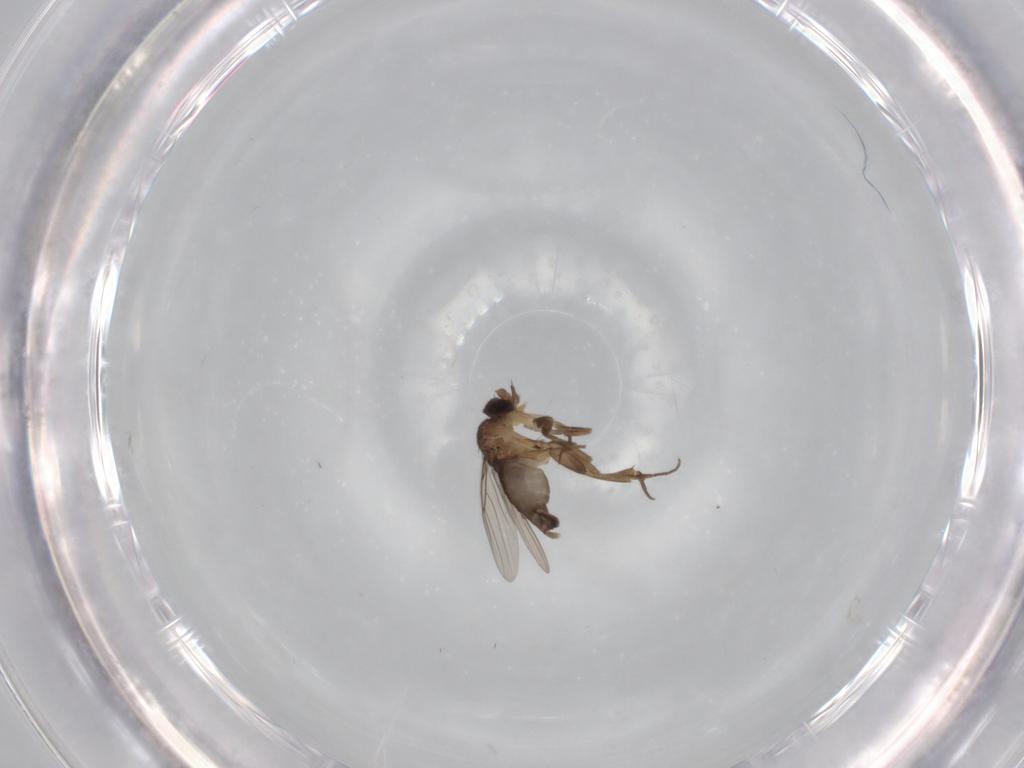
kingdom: Animalia
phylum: Arthropoda
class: Insecta
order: Diptera
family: Phoridae
